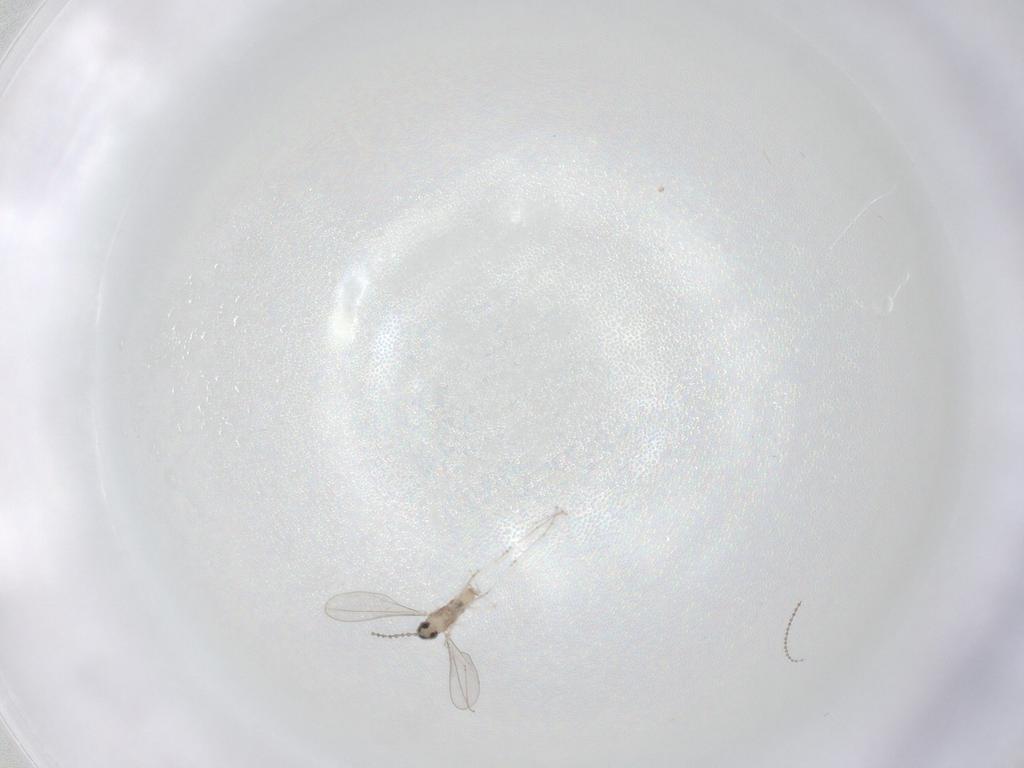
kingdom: Animalia
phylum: Arthropoda
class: Insecta
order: Diptera
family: Cecidomyiidae
